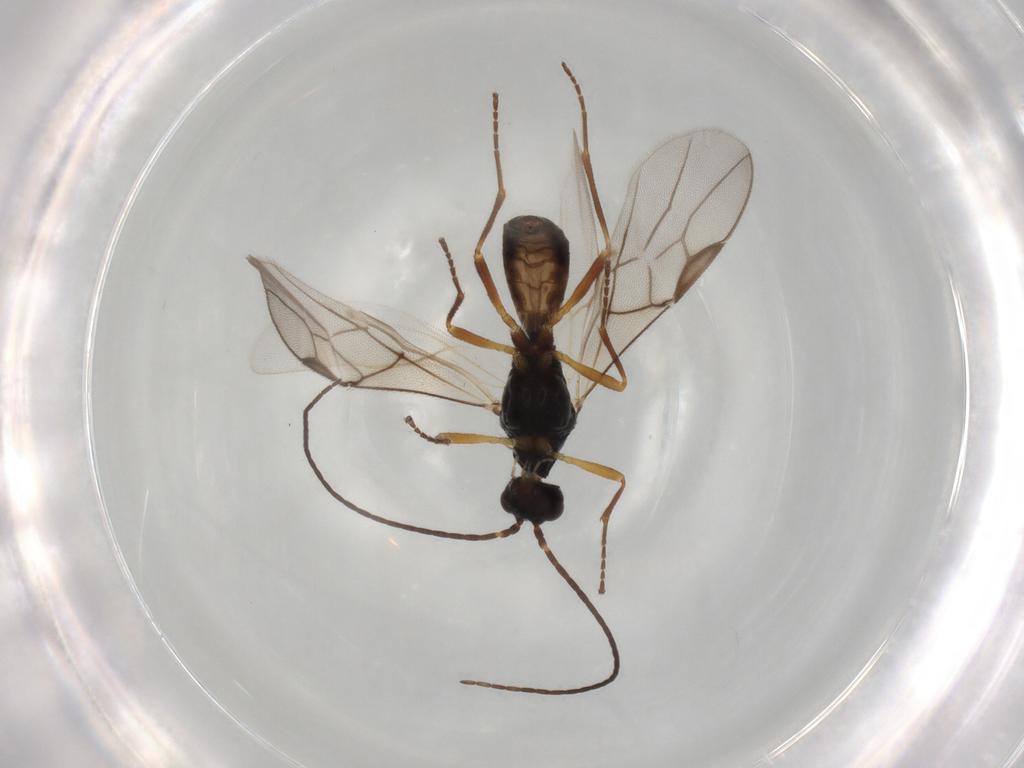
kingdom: Animalia
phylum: Arthropoda
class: Insecta
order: Hymenoptera
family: Braconidae
